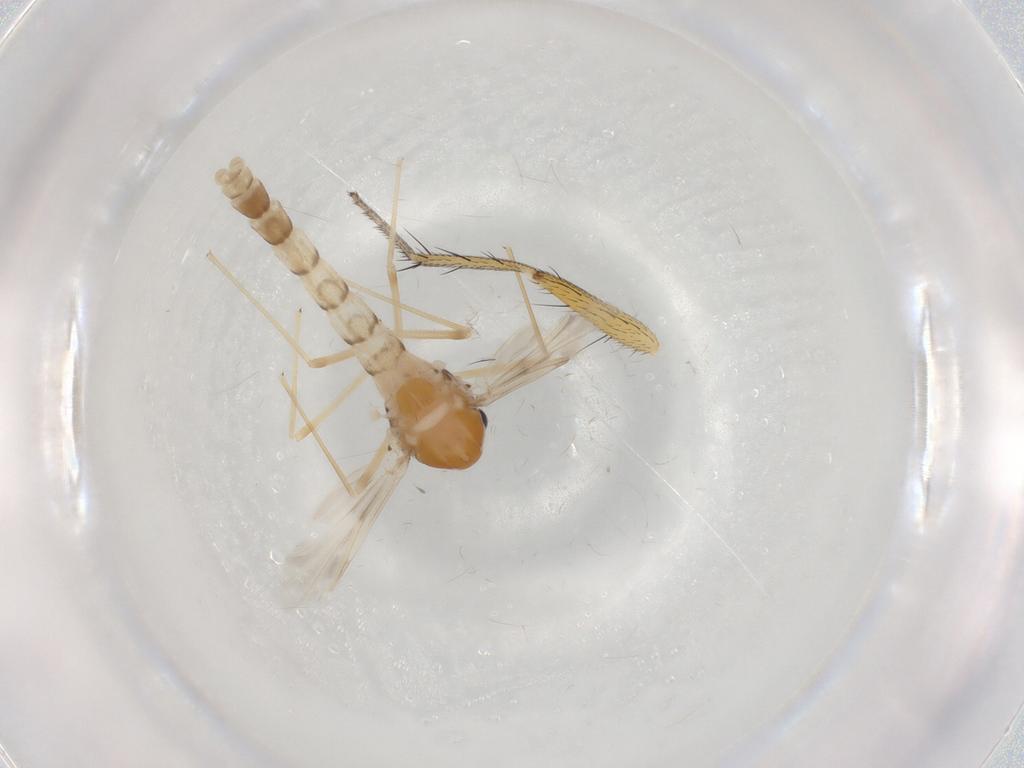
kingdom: Animalia
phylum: Arthropoda
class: Insecta
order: Diptera
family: Chironomidae
